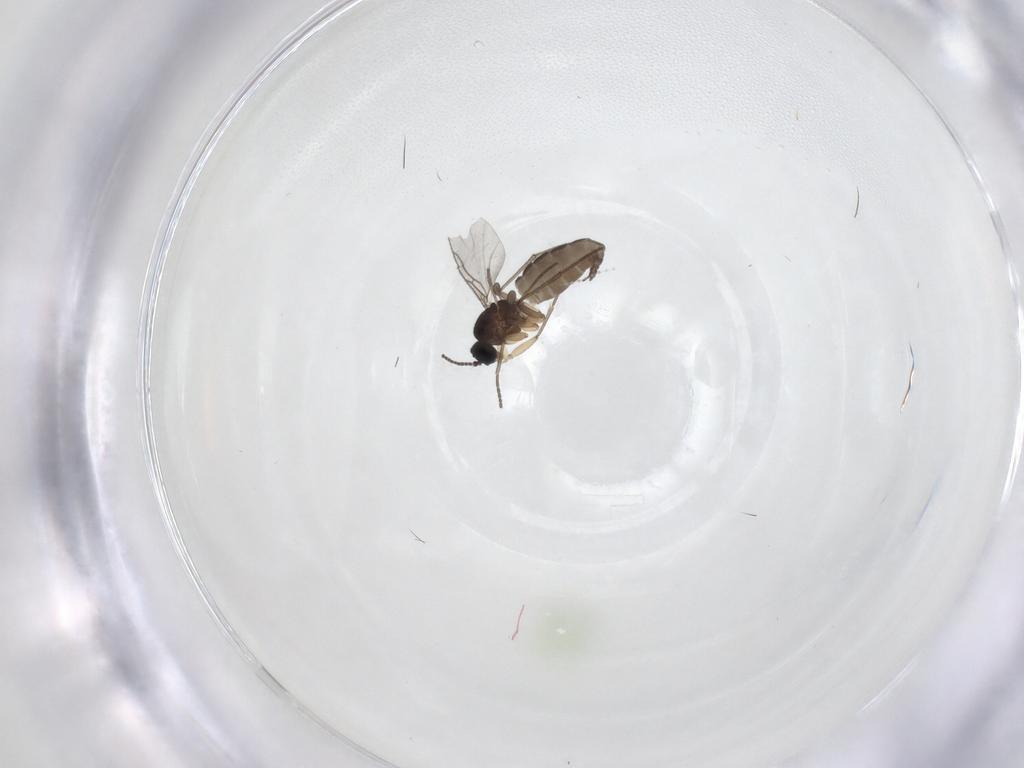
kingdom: Animalia
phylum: Arthropoda
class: Insecta
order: Diptera
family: Sciaridae
